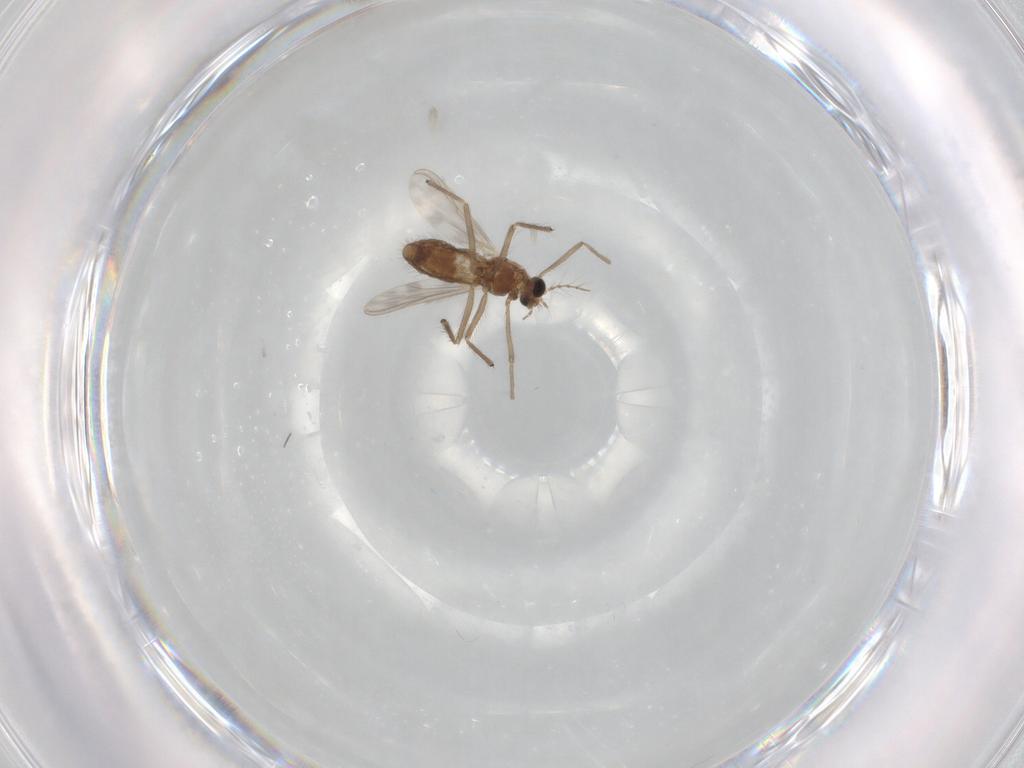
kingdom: Animalia
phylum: Arthropoda
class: Insecta
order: Diptera
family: Chironomidae
